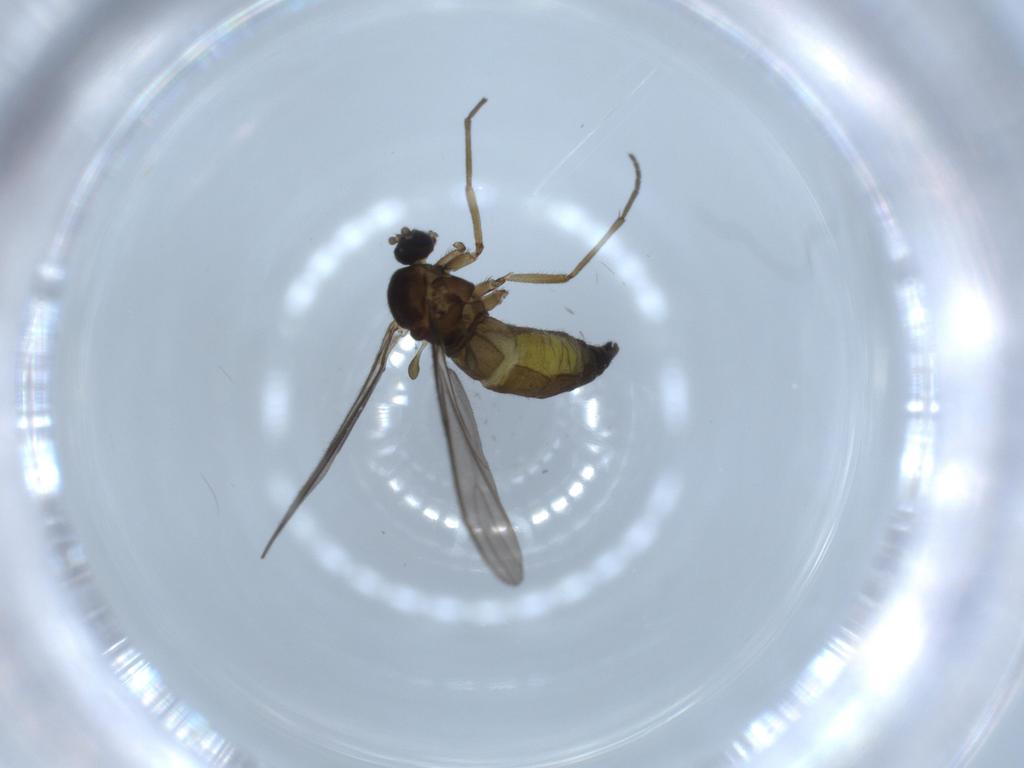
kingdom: Animalia
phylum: Arthropoda
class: Insecta
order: Diptera
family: Sciaridae
